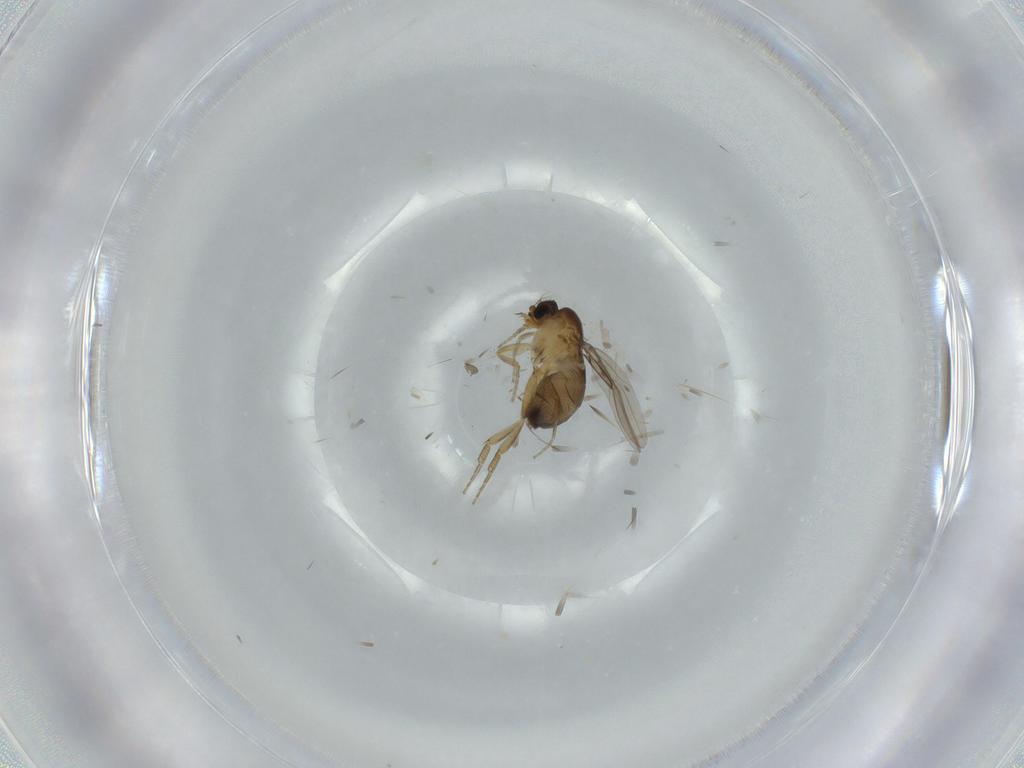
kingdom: Animalia
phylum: Arthropoda
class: Insecta
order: Diptera
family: Phoridae
